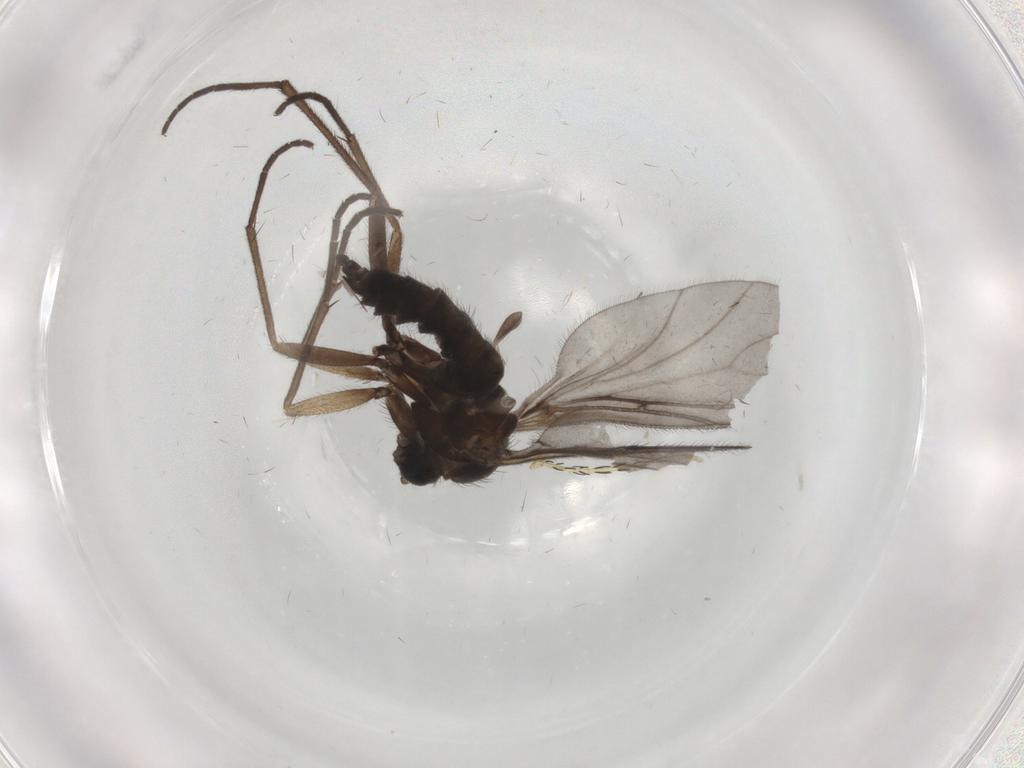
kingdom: Animalia
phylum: Arthropoda
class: Insecta
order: Diptera
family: Sciaridae
